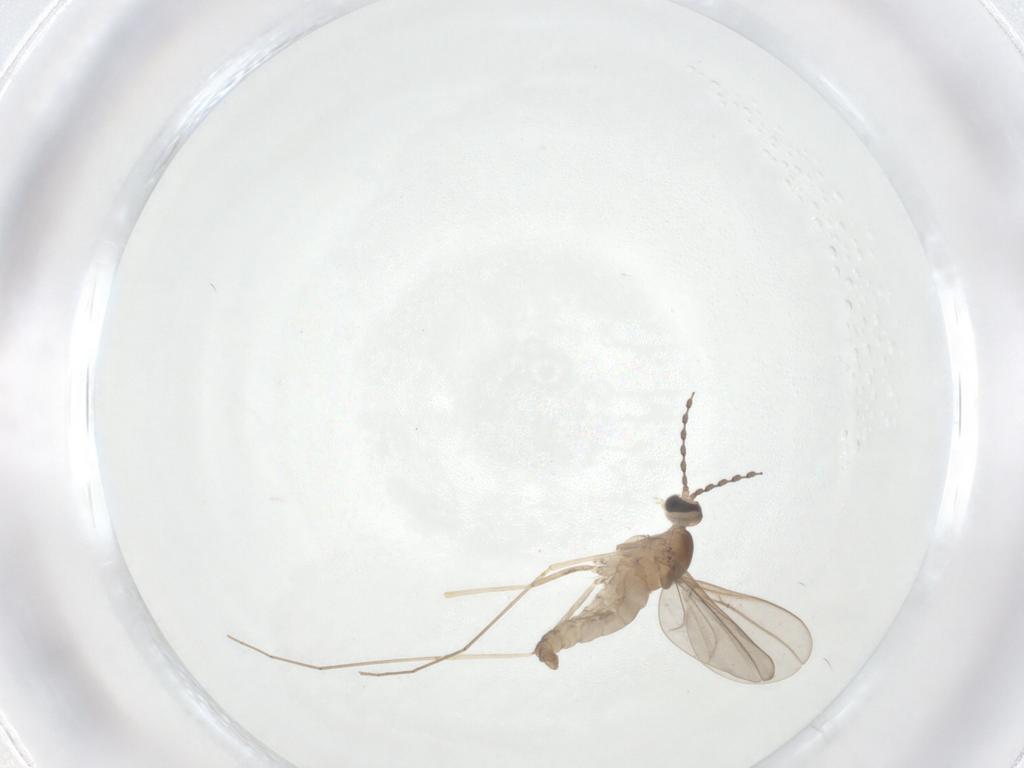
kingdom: Animalia
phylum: Arthropoda
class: Insecta
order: Diptera
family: Cecidomyiidae
